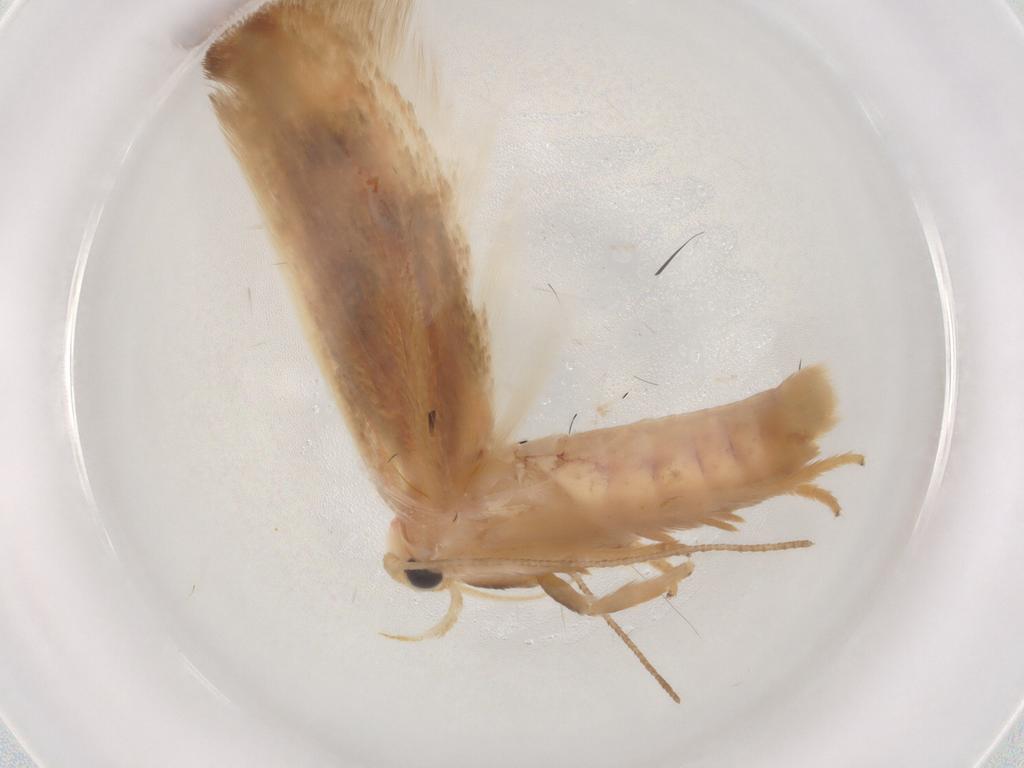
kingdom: Animalia
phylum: Arthropoda
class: Insecta
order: Lepidoptera
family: Geometridae
